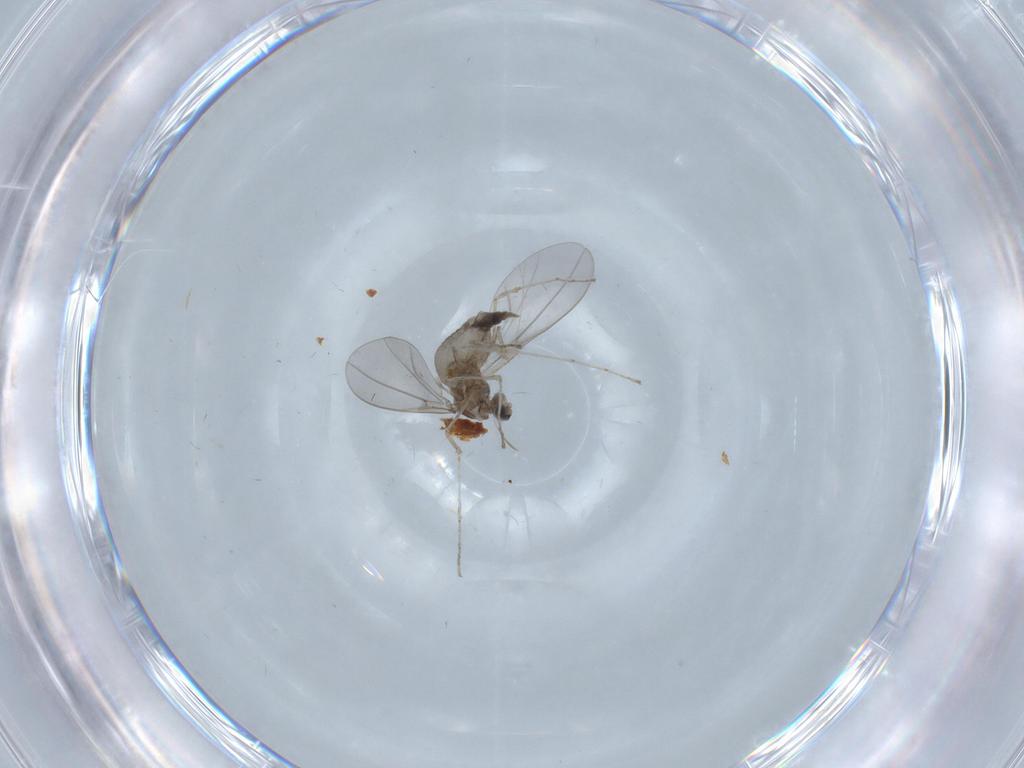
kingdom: Animalia
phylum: Arthropoda
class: Insecta
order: Diptera
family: Cecidomyiidae
